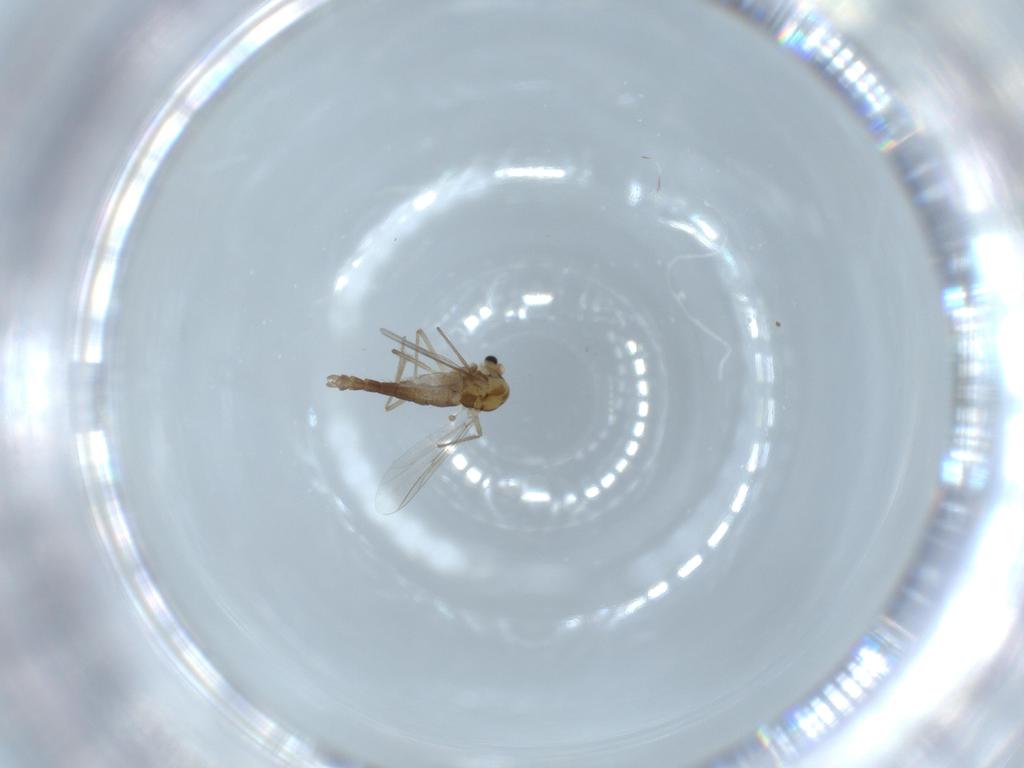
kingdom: Animalia
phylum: Arthropoda
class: Insecta
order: Diptera
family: Chironomidae
